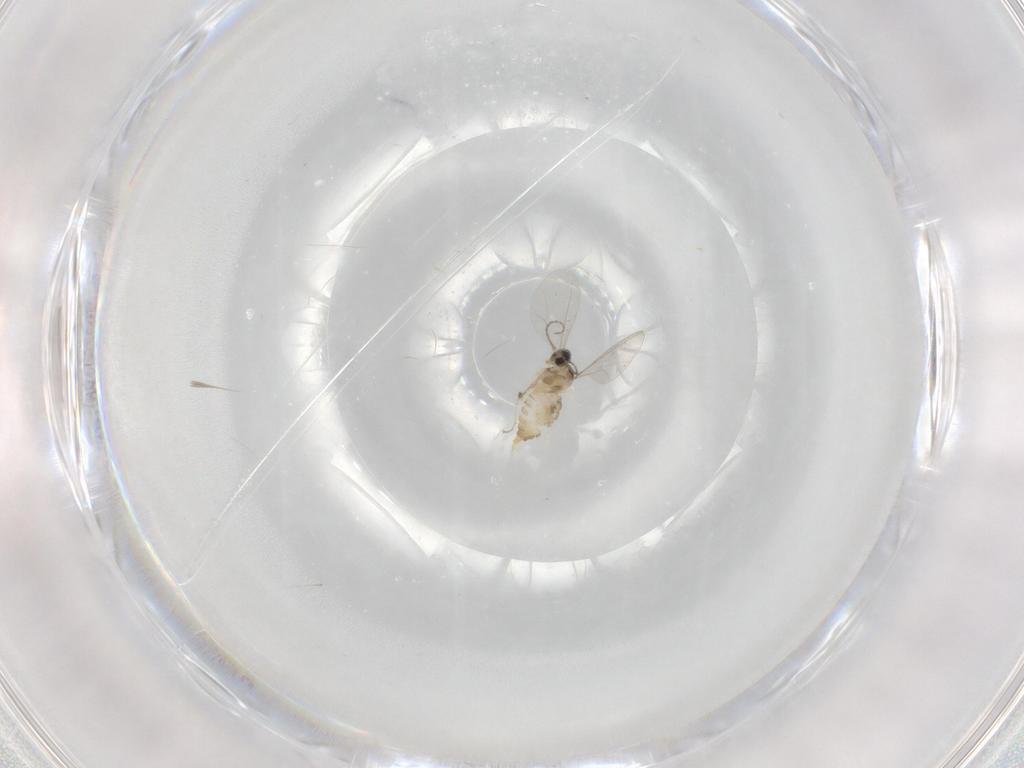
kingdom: Animalia
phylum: Arthropoda
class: Insecta
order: Diptera
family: Cecidomyiidae
